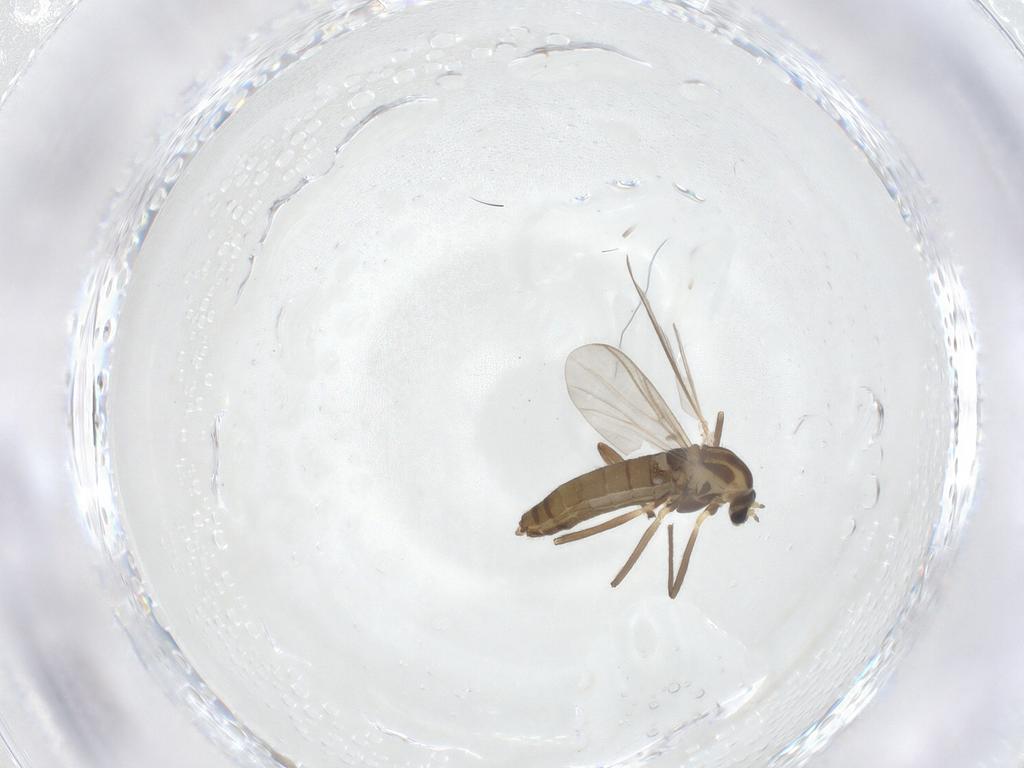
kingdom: Animalia
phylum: Arthropoda
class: Insecta
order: Diptera
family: Chironomidae
